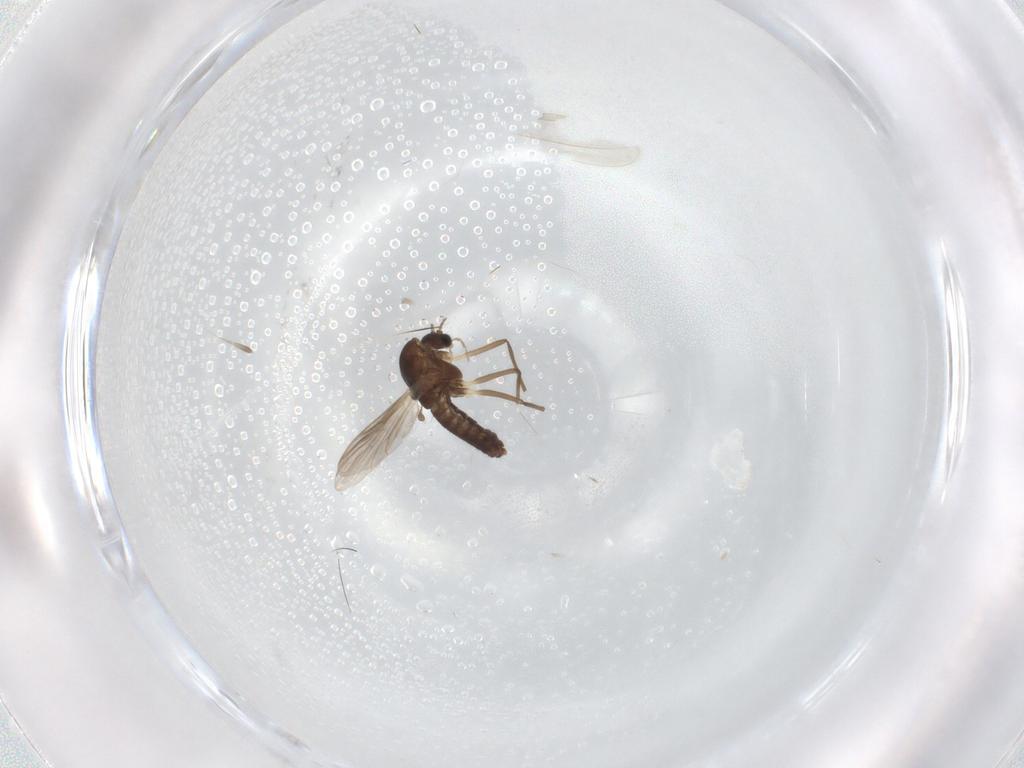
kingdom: Animalia
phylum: Arthropoda
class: Insecta
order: Diptera
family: Chironomidae
